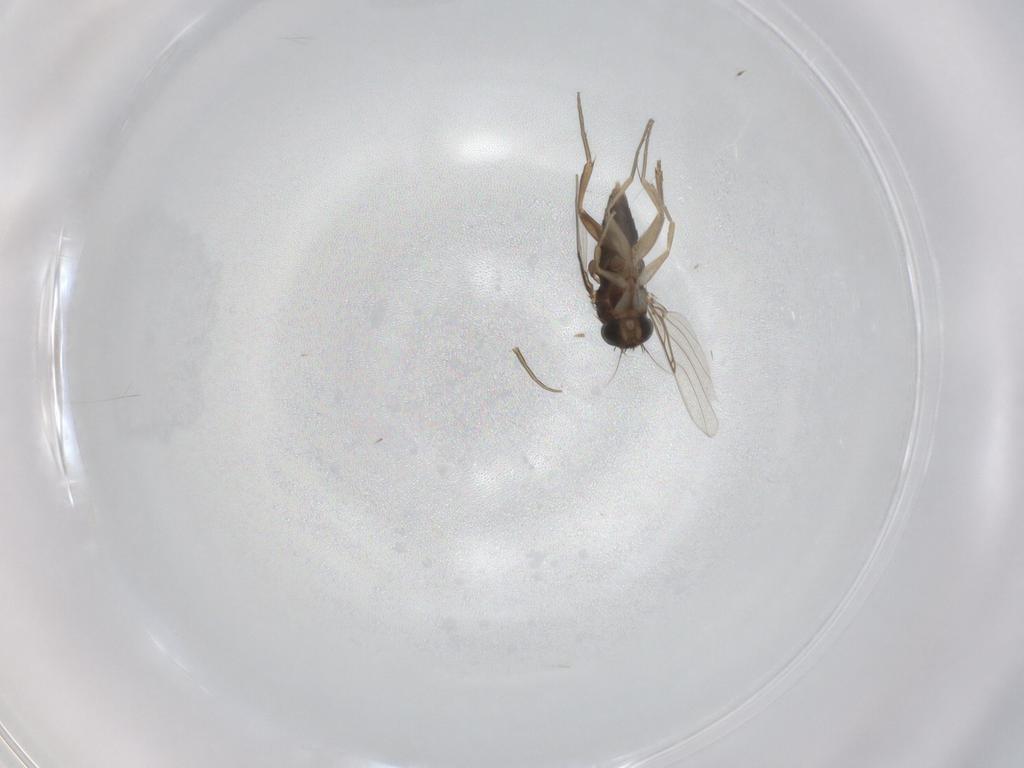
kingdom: Animalia
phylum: Arthropoda
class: Insecta
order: Diptera
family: Phoridae
